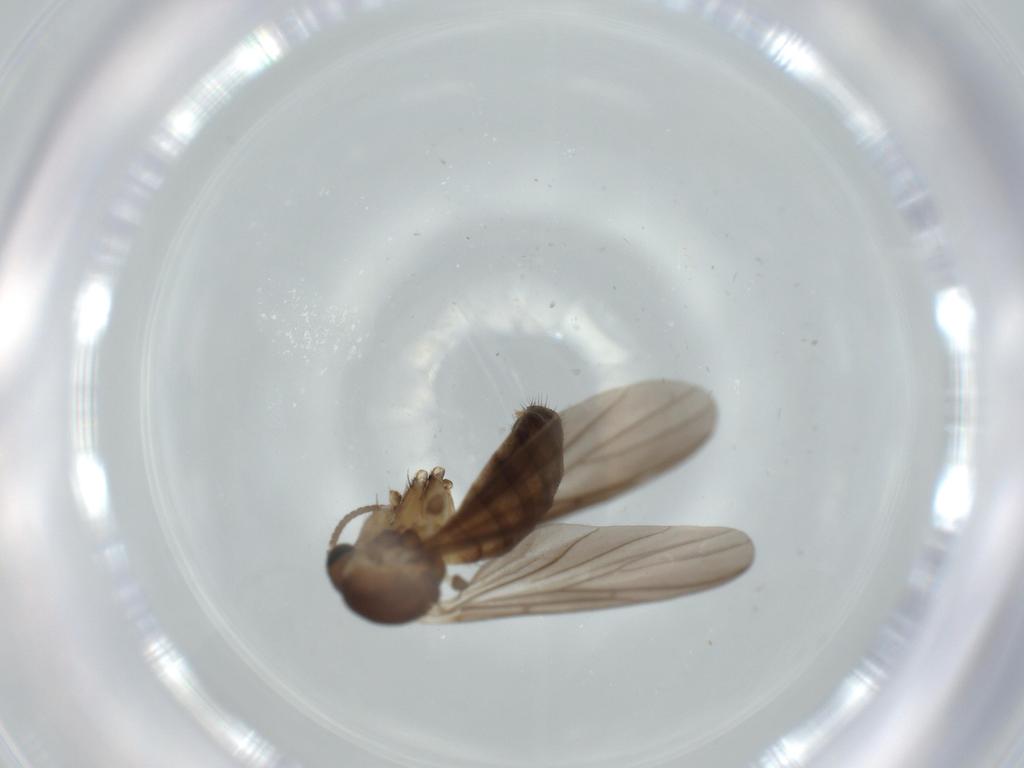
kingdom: Animalia
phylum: Arthropoda
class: Insecta
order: Diptera
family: Mycetophilidae
